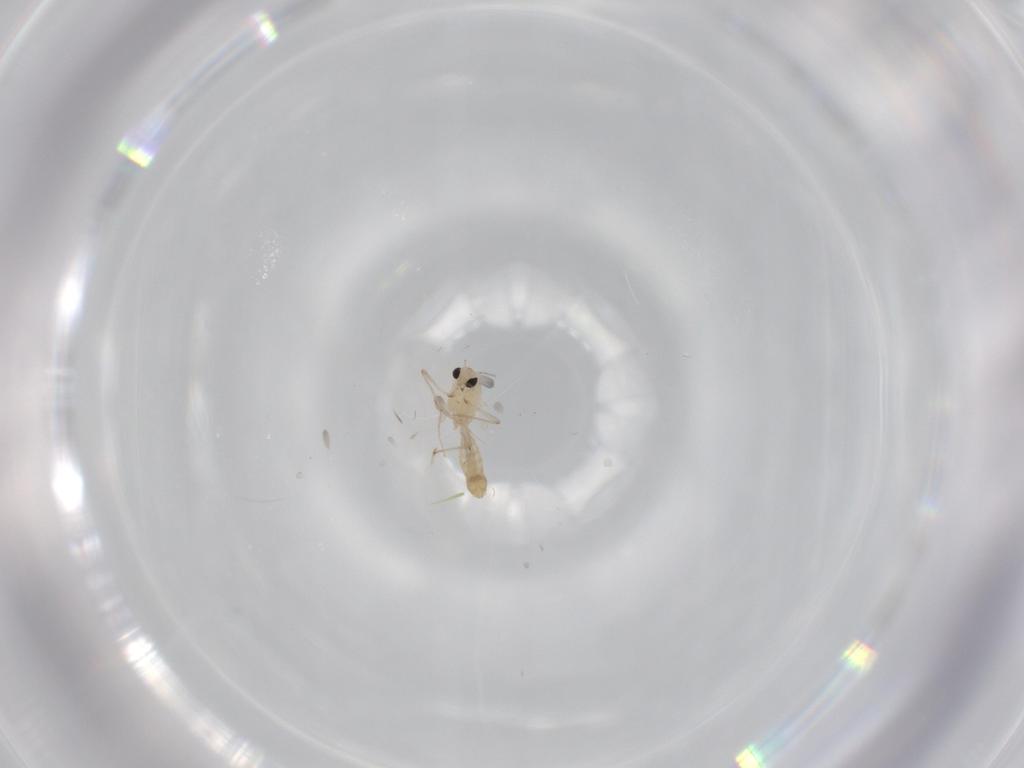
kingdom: Animalia
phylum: Arthropoda
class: Insecta
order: Diptera
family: Chironomidae
